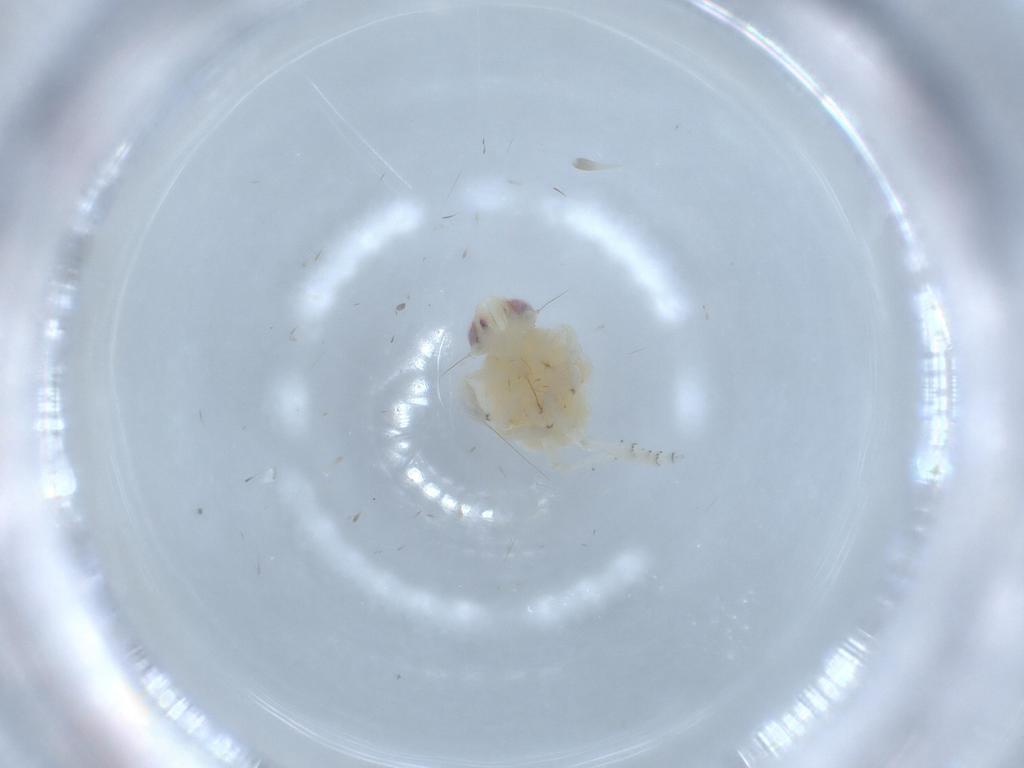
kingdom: Animalia
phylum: Arthropoda
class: Insecta
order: Hemiptera
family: Nogodinidae
